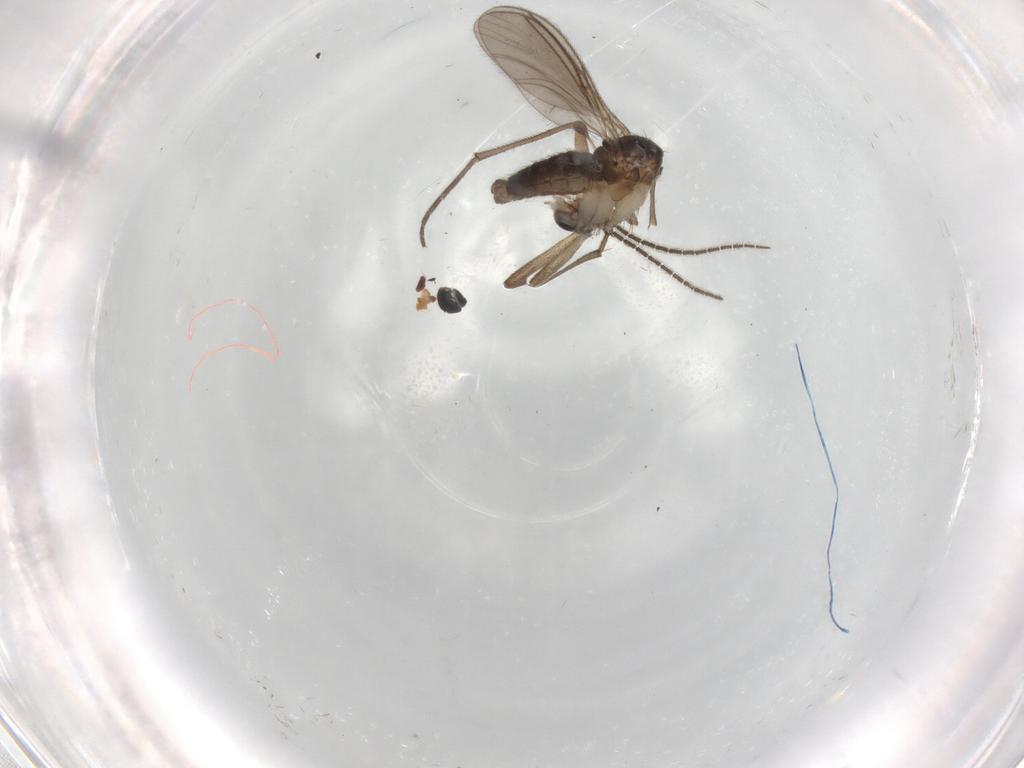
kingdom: Animalia
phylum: Arthropoda
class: Insecta
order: Diptera
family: Sciaridae
